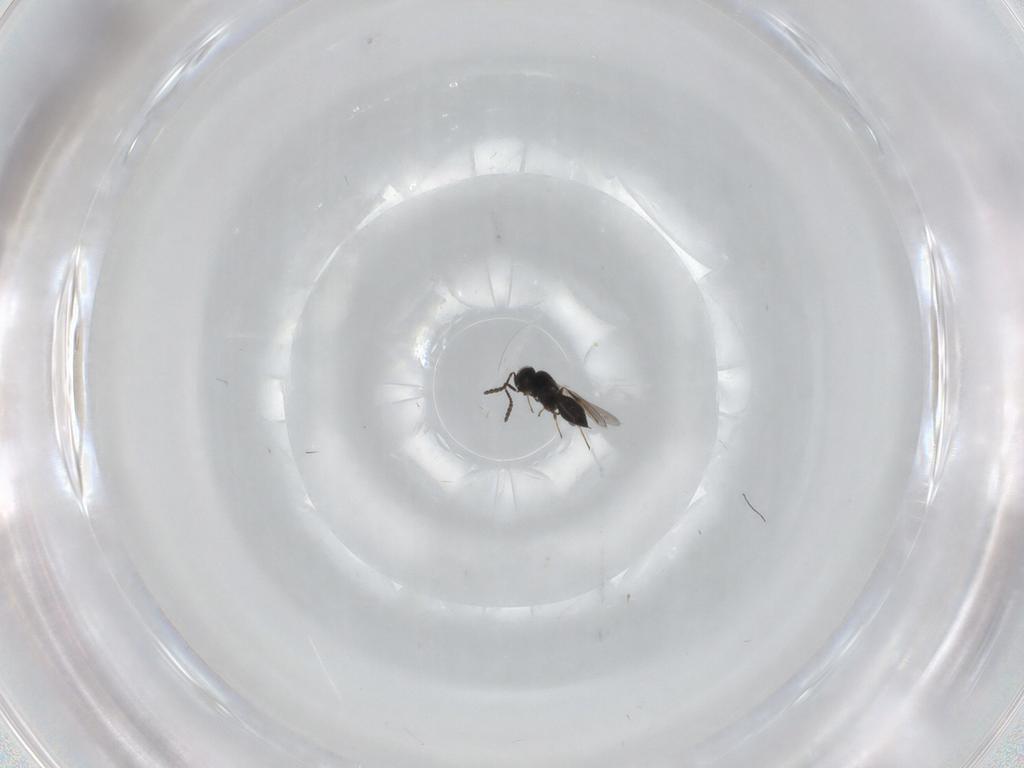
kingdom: Animalia
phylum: Arthropoda
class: Insecta
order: Hymenoptera
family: Scelionidae
